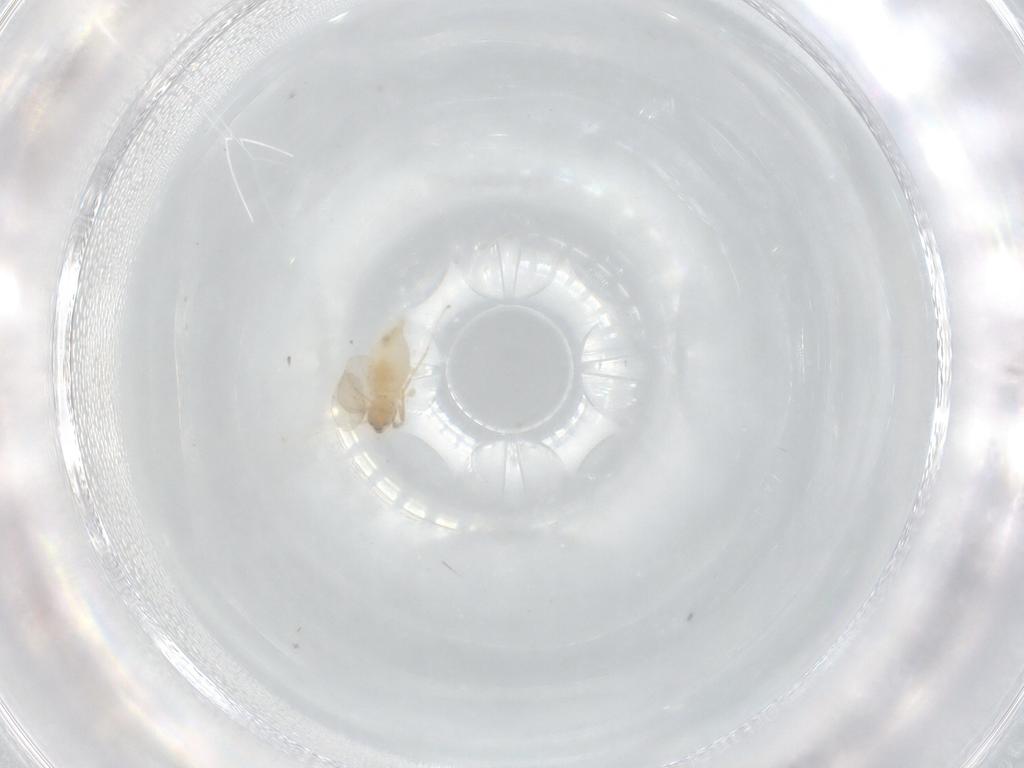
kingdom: Animalia
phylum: Arthropoda
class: Insecta
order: Diptera
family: Cecidomyiidae
